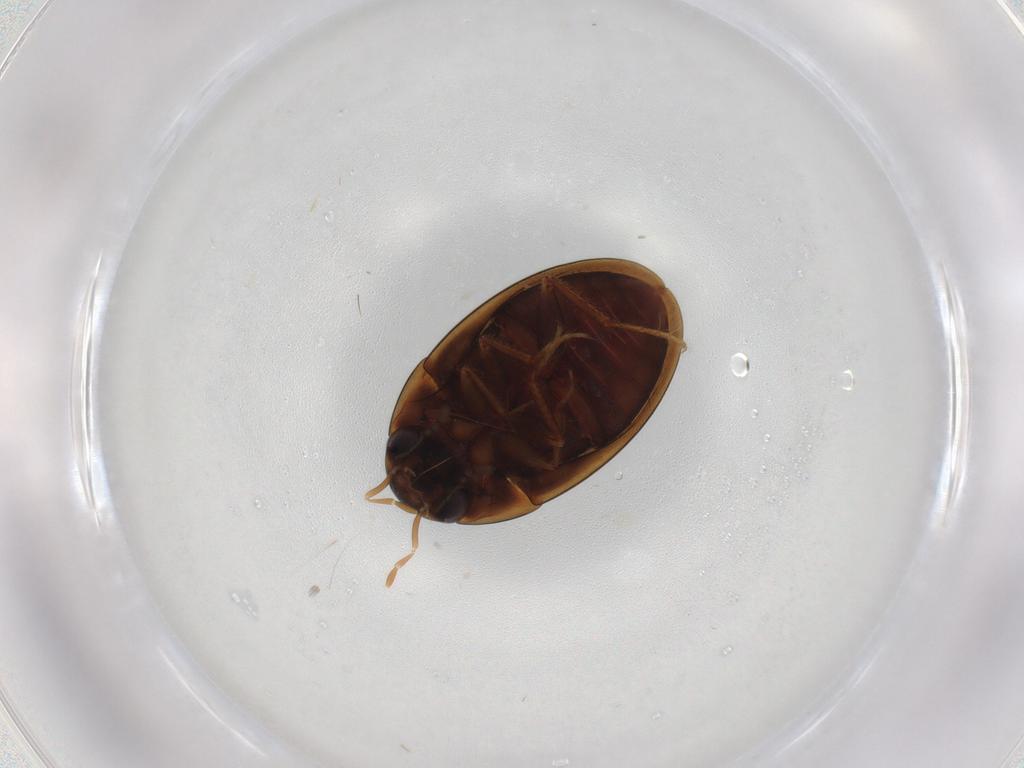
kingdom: Animalia
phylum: Arthropoda
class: Insecta
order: Coleoptera
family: Hydrophilidae
